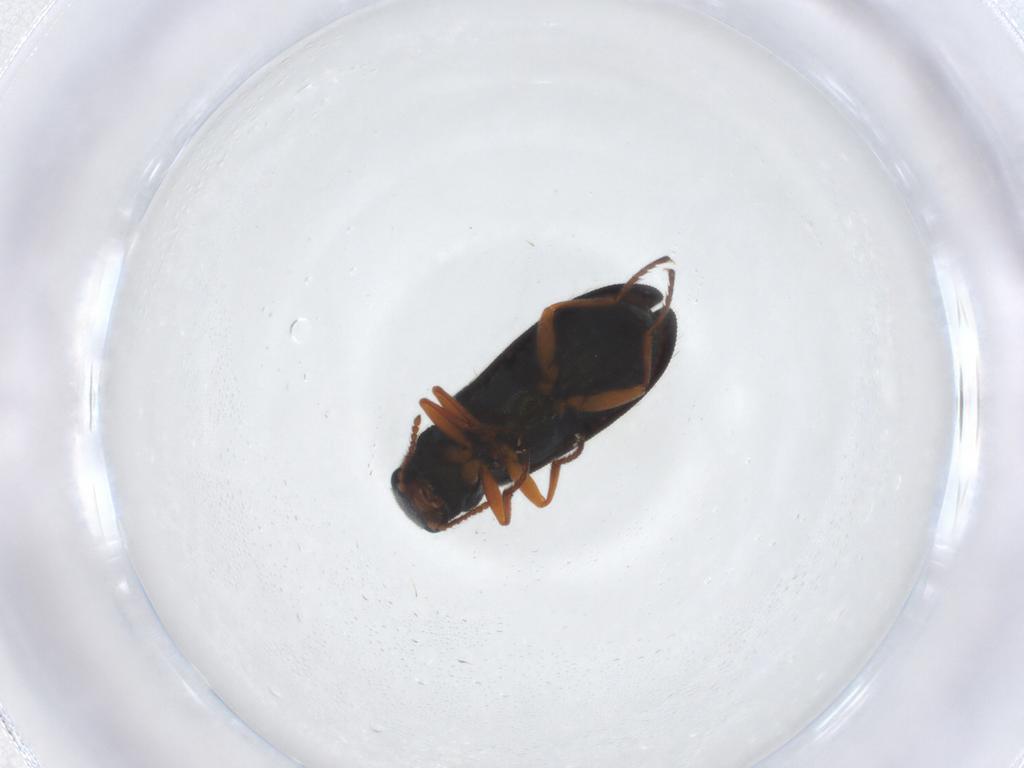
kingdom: Animalia
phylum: Arthropoda
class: Insecta
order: Coleoptera
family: Melyridae
